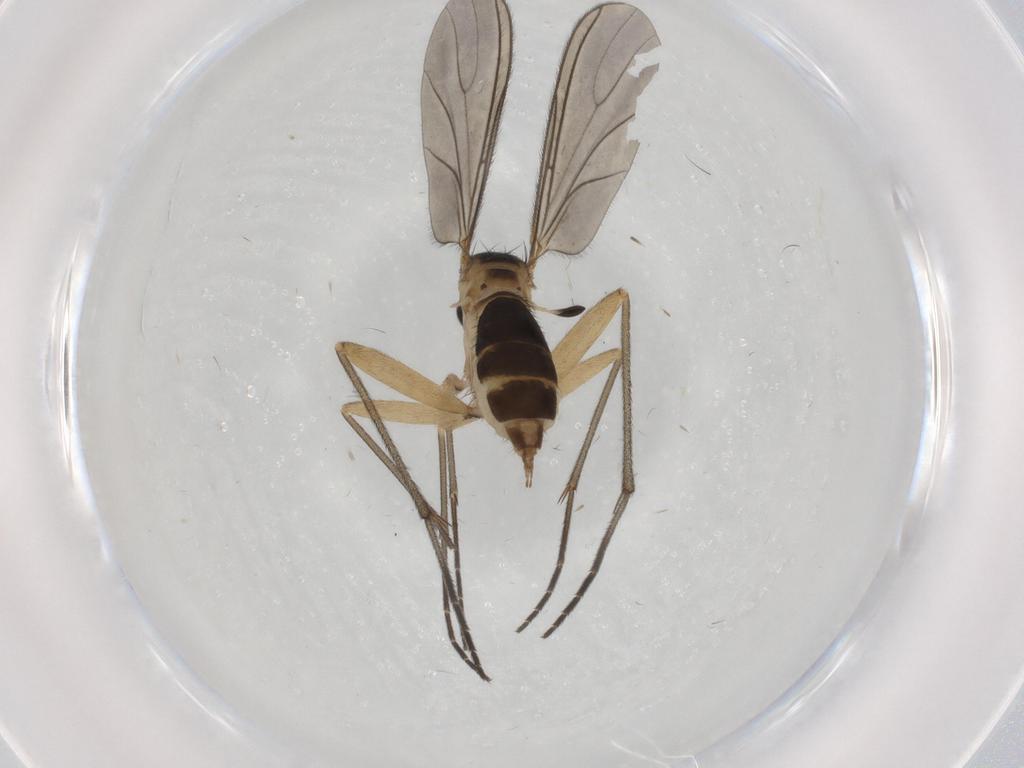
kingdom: Animalia
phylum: Arthropoda
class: Insecta
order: Diptera
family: Sciaridae
